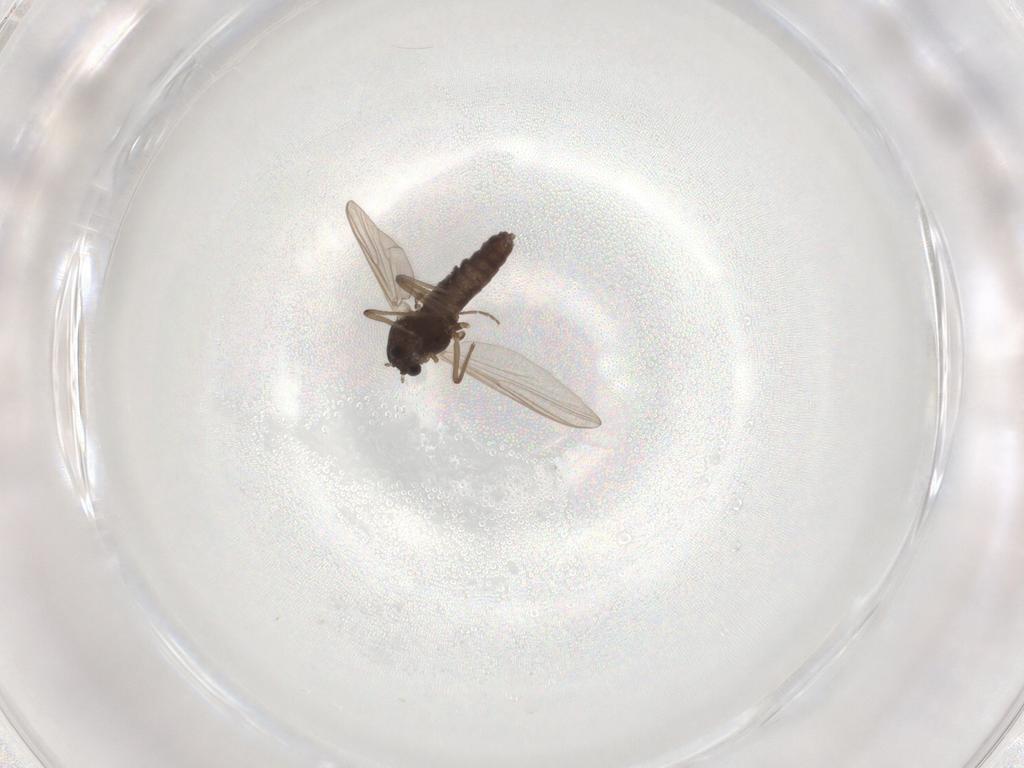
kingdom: Animalia
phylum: Arthropoda
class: Insecta
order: Diptera
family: Chironomidae
